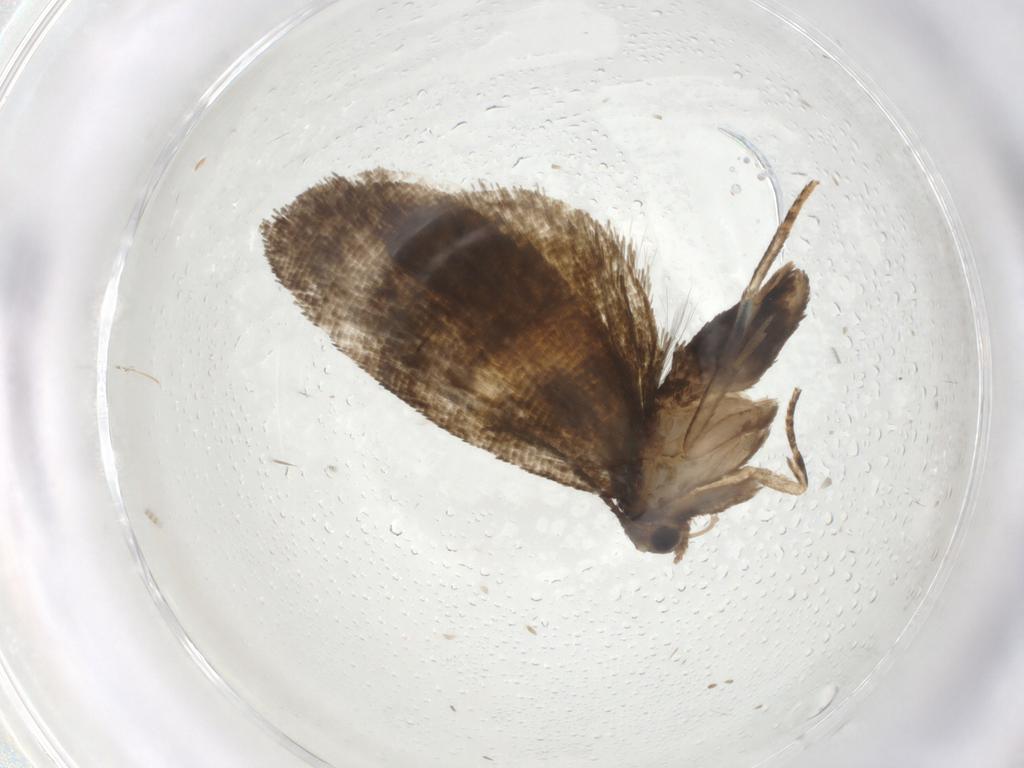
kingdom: Animalia
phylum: Arthropoda
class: Insecta
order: Lepidoptera
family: Tortricidae
